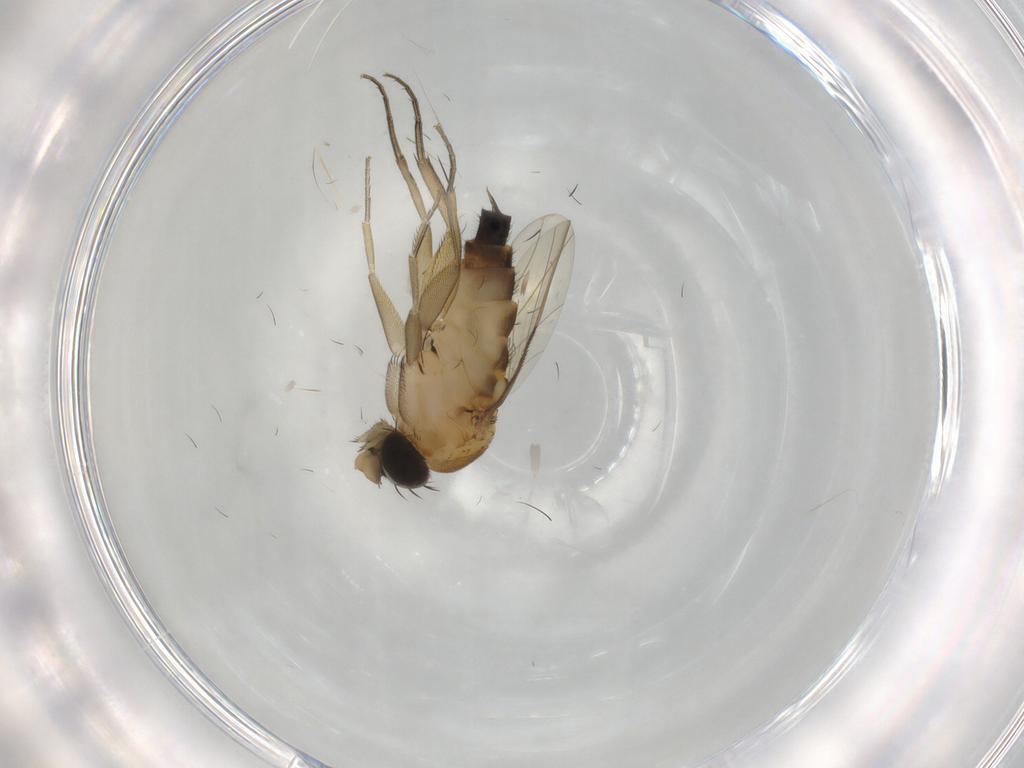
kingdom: Animalia
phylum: Arthropoda
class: Insecta
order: Diptera
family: Phoridae
